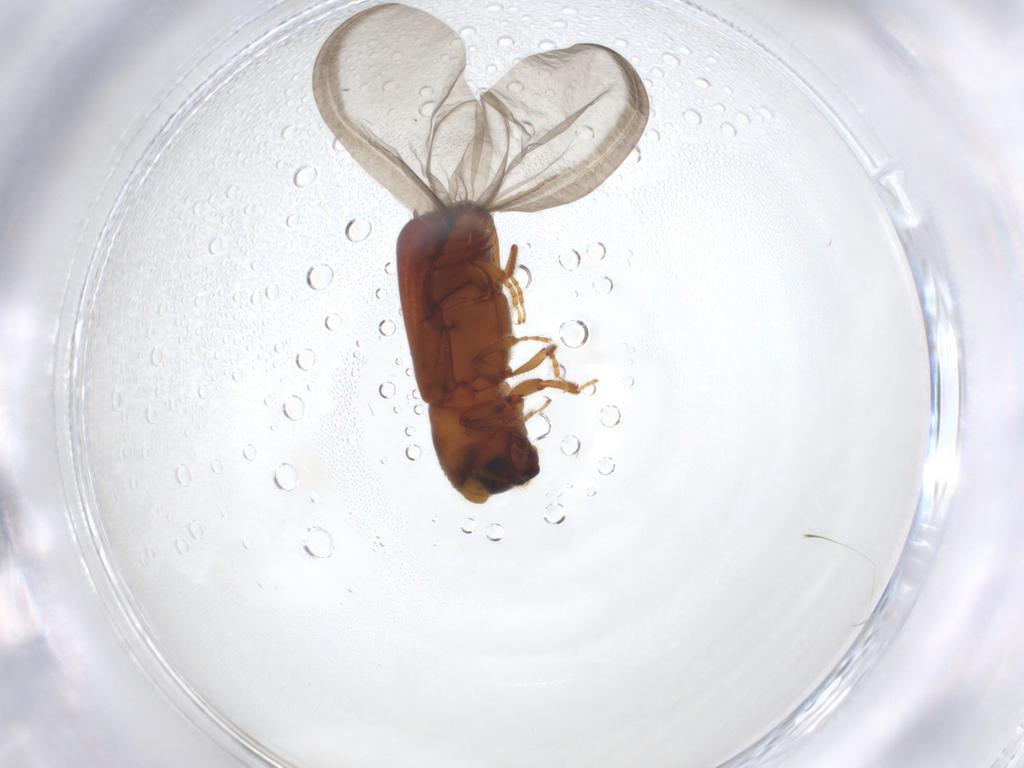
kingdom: Animalia
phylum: Arthropoda
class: Insecta
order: Coleoptera
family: Curculionidae
